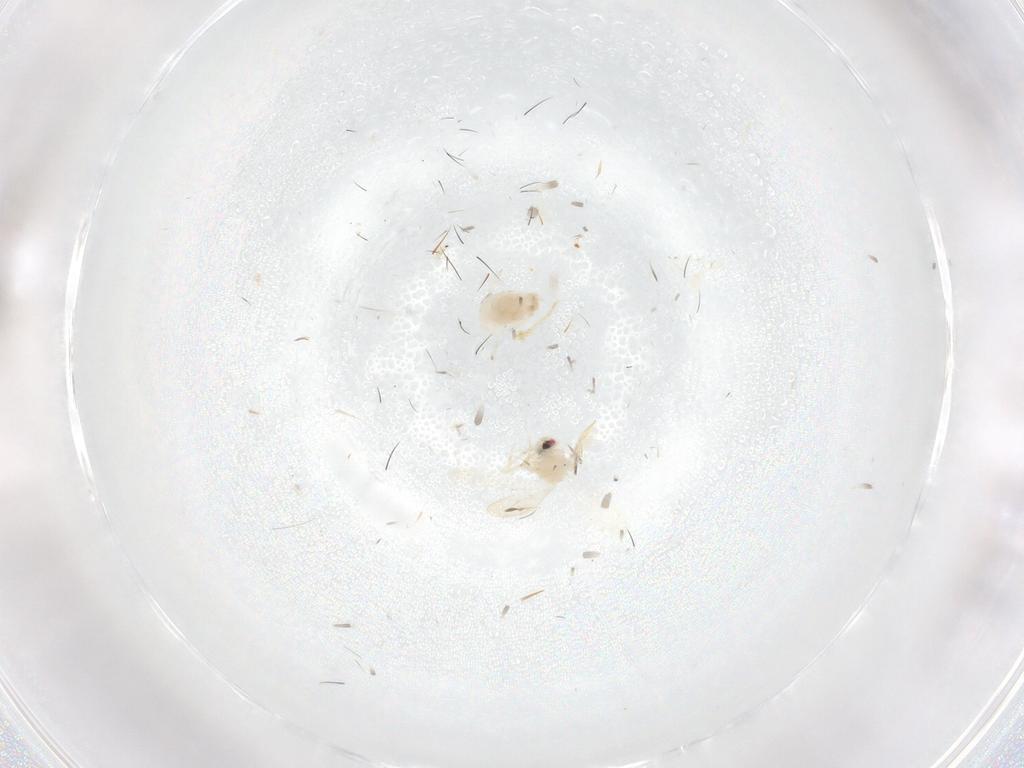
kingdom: Animalia
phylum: Arthropoda
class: Insecta
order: Hemiptera
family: Aleyrodidae
